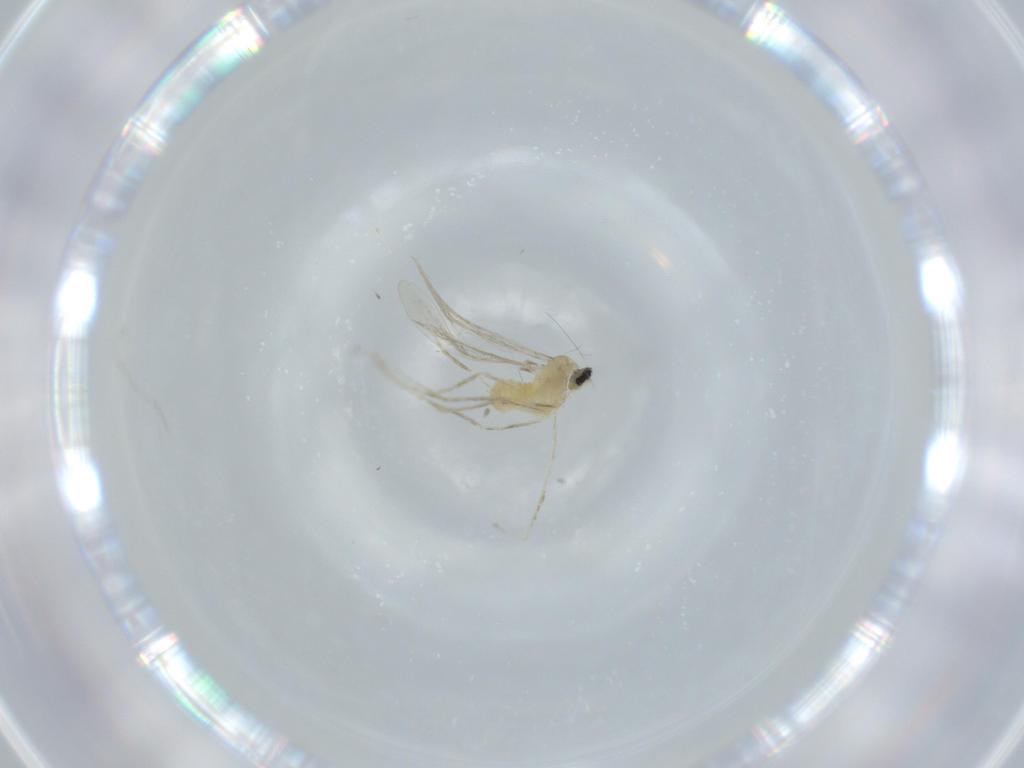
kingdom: Animalia
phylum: Arthropoda
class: Insecta
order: Diptera
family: Cecidomyiidae
